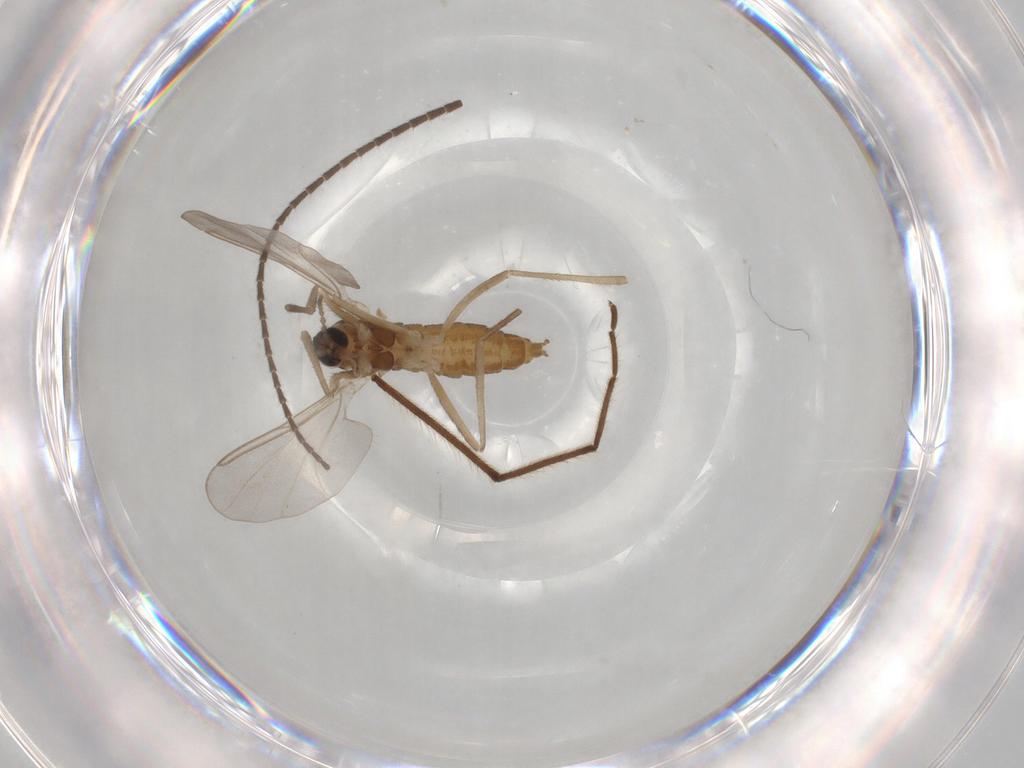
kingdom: Animalia
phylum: Arthropoda
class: Insecta
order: Diptera
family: Cecidomyiidae
